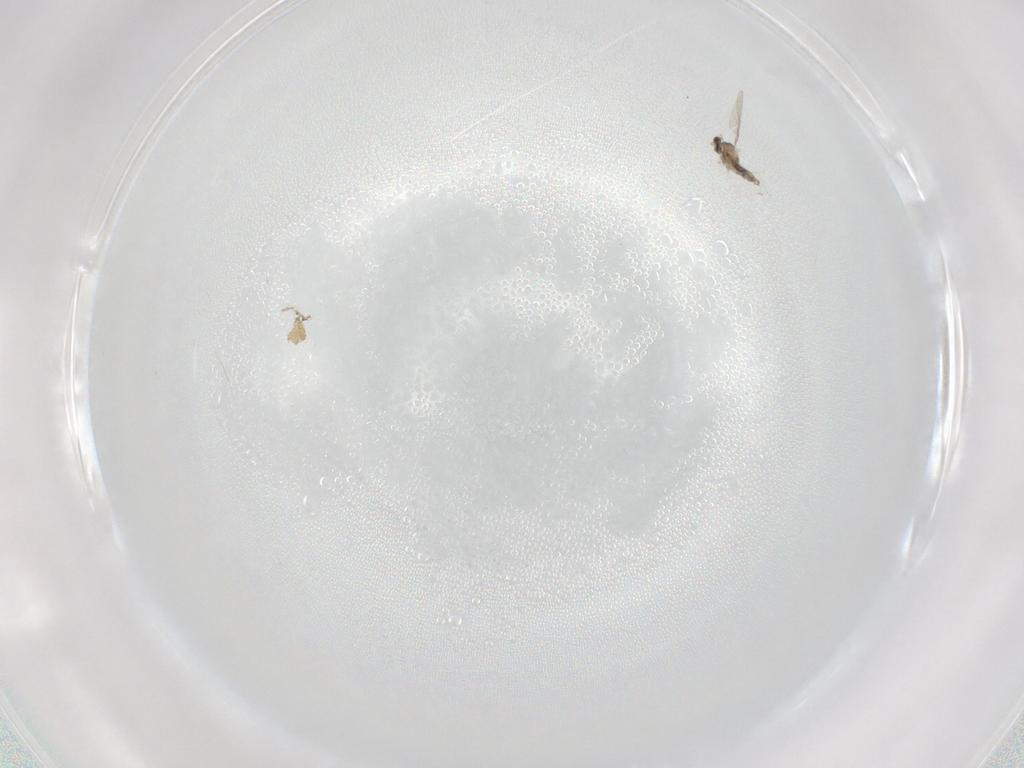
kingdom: Animalia
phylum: Arthropoda
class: Insecta
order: Diptera
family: Cecidomyiidae
